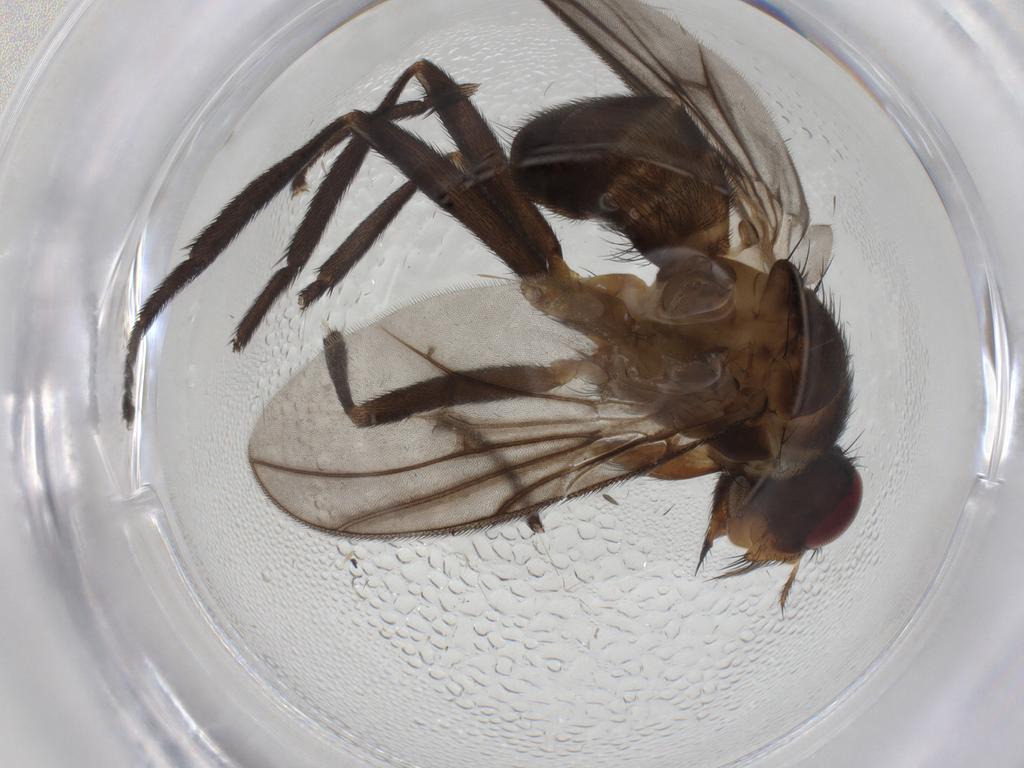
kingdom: Animalia
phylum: Arthropoda
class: Insecta
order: Diptera
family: Calliphoridae
